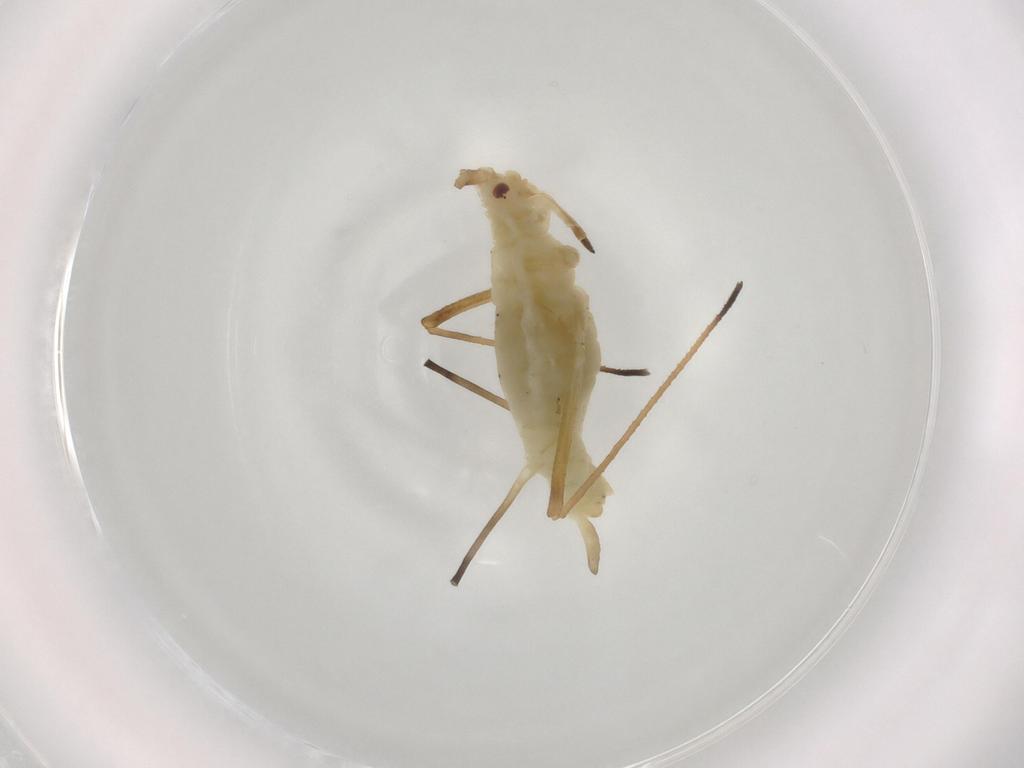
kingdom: Animalia
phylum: Arthropoda
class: Insecta
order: Hemiptera
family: Aphididae
